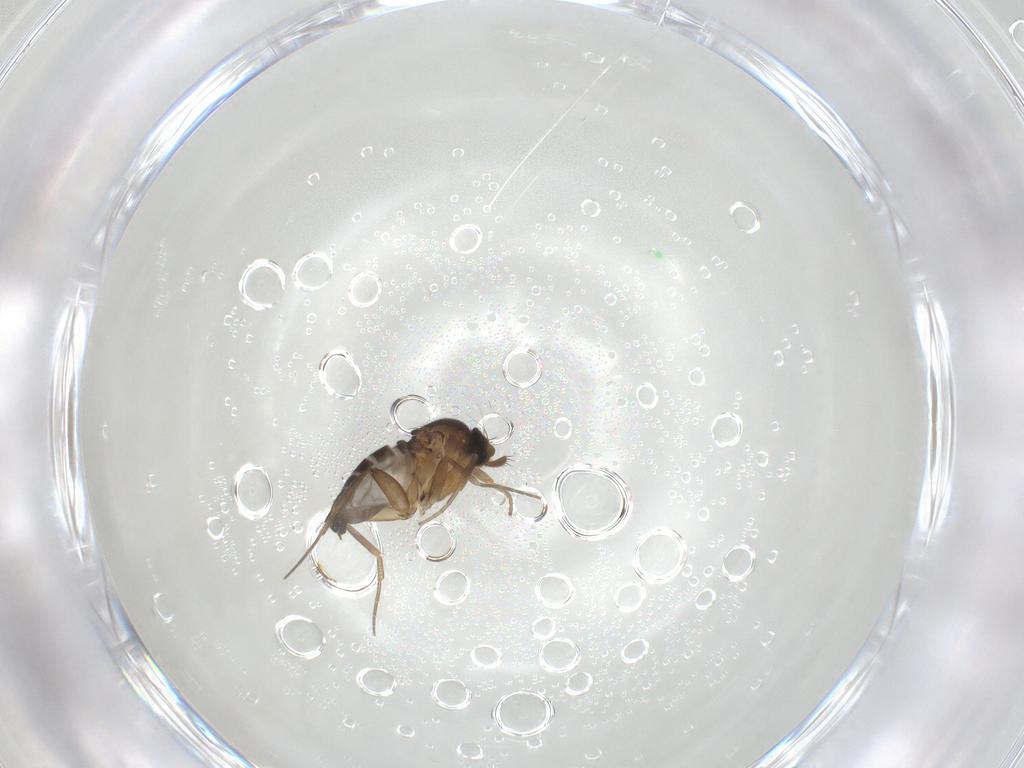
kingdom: Animalia
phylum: Arthropoda
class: Insecta
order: Diptera
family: Phoridae
